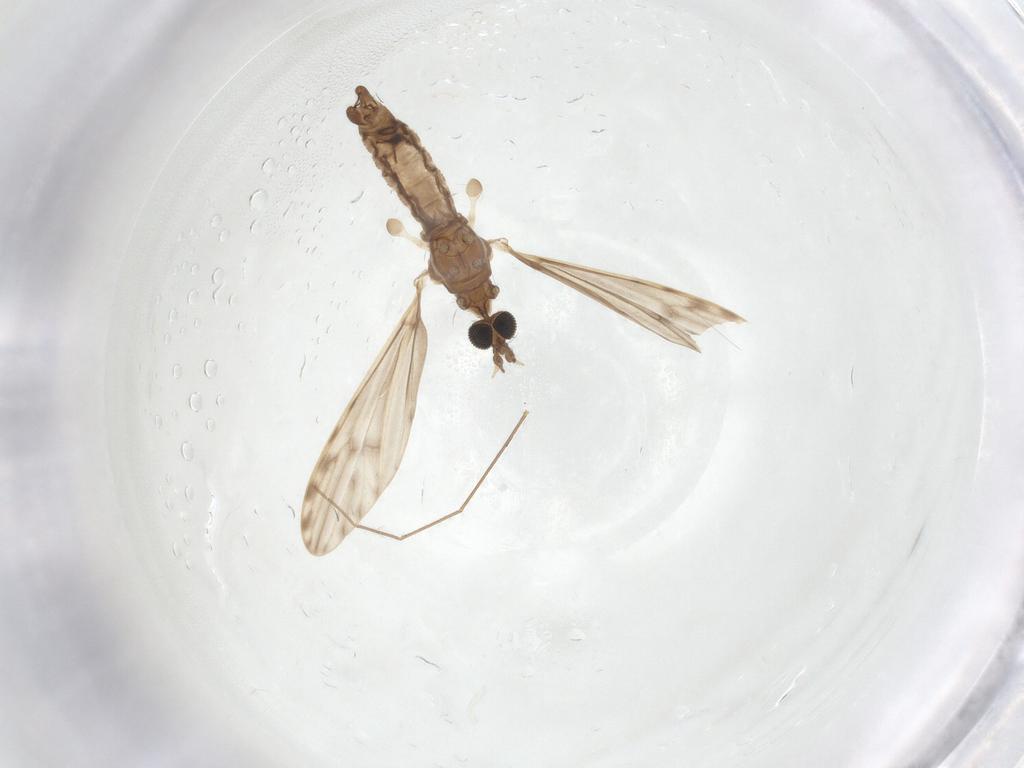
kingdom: Animalia
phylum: Arthropoda
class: Insecta
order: Diptera
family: Limoniidae
